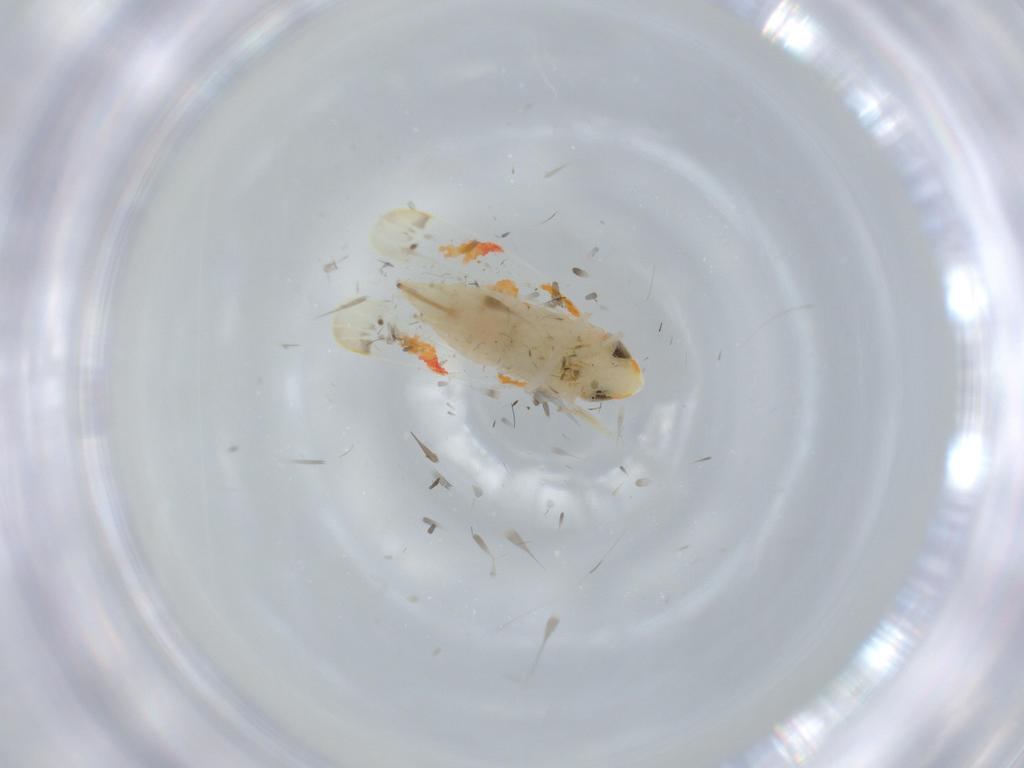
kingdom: Animalia
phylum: Arthropoda
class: Insecta
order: Hemiptera
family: Cicadellidae
